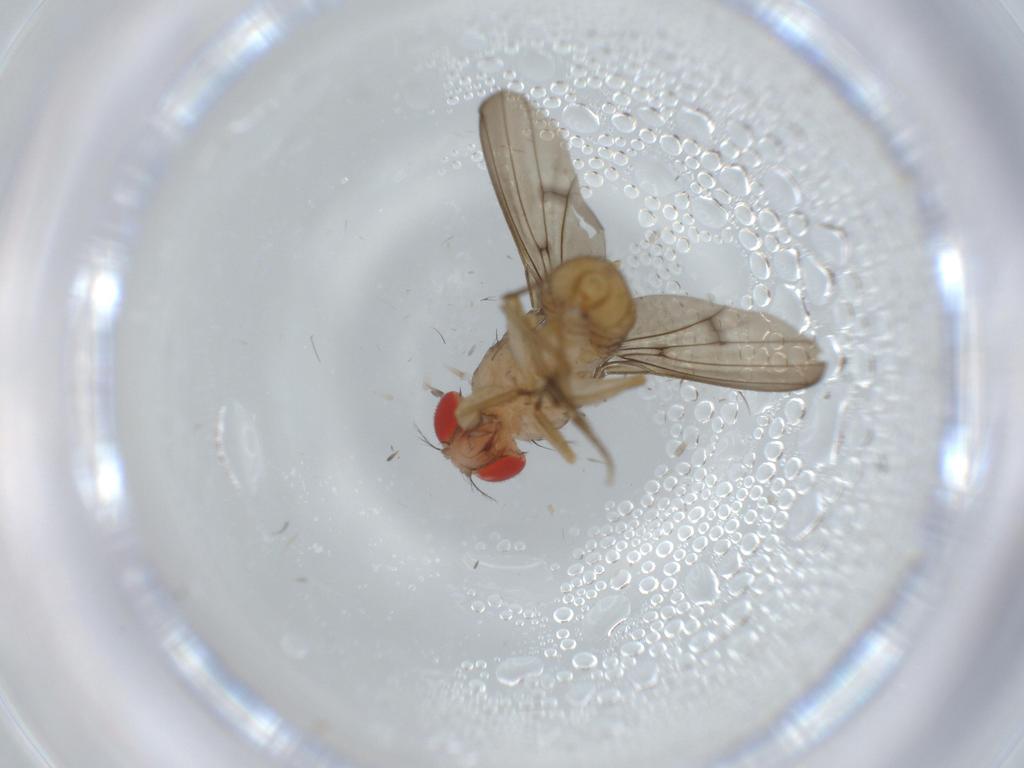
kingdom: Animalia
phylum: Arthropoda
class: Insecta
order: Diptera
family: Drosophilidae
